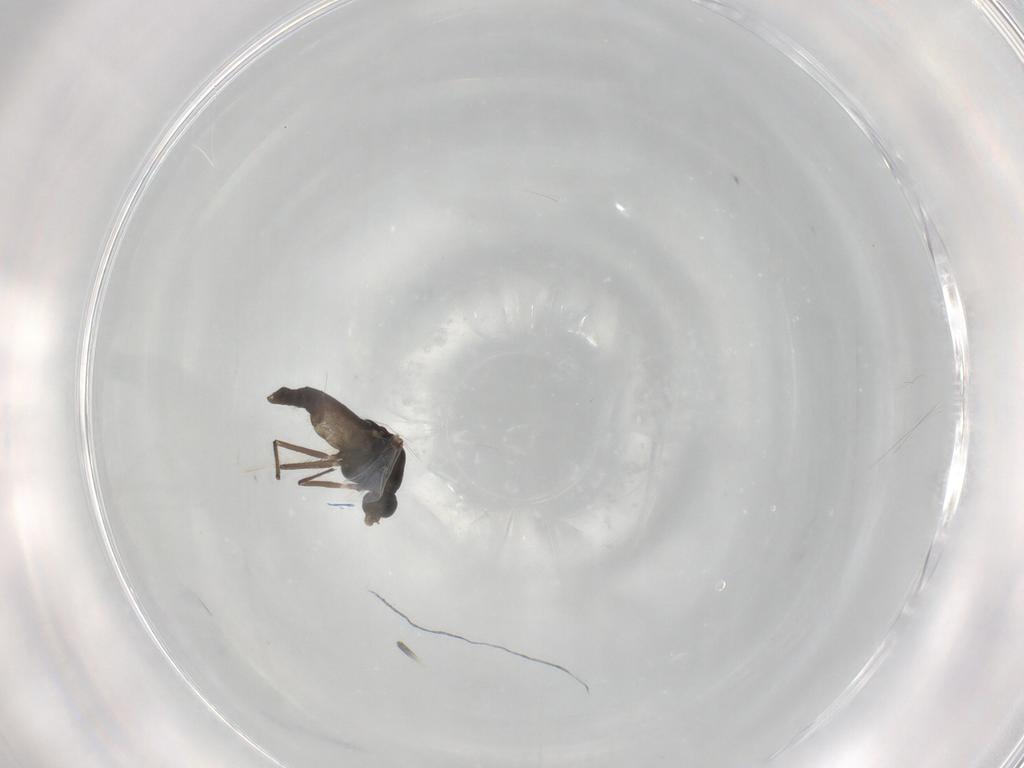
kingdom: Animalia
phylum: Arthropoda
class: Insecta
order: Diptera
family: Chironomidae
